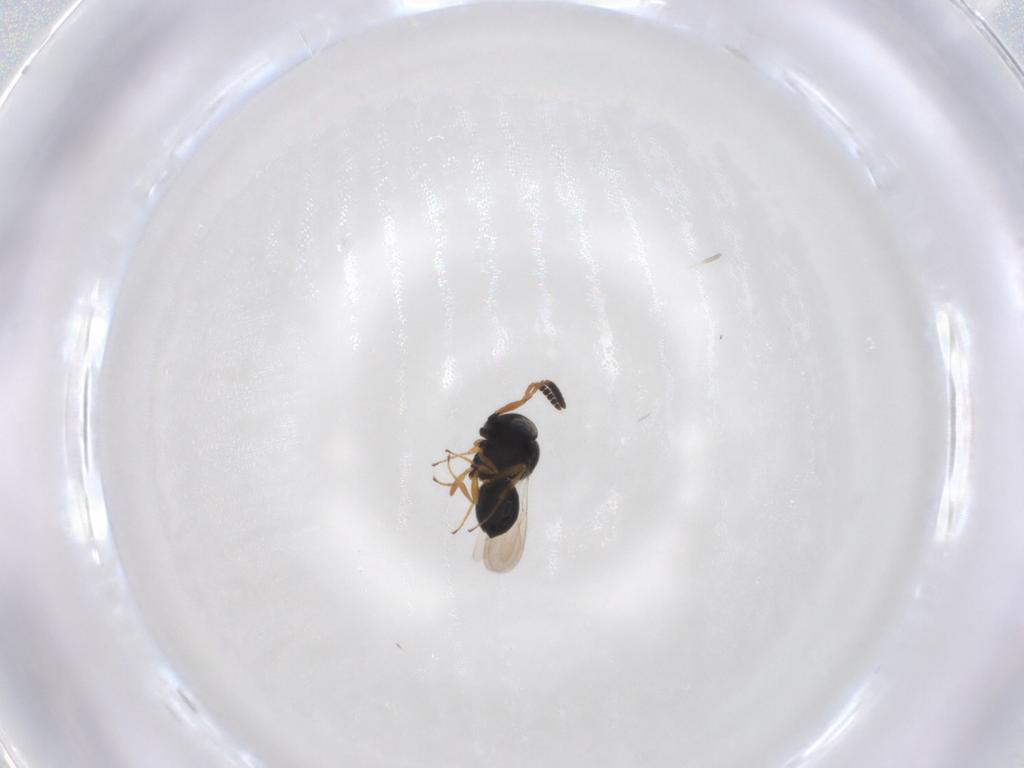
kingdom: Animalia
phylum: Arthropoda
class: Insecta
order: Hymenoptera
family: Scelionidae
